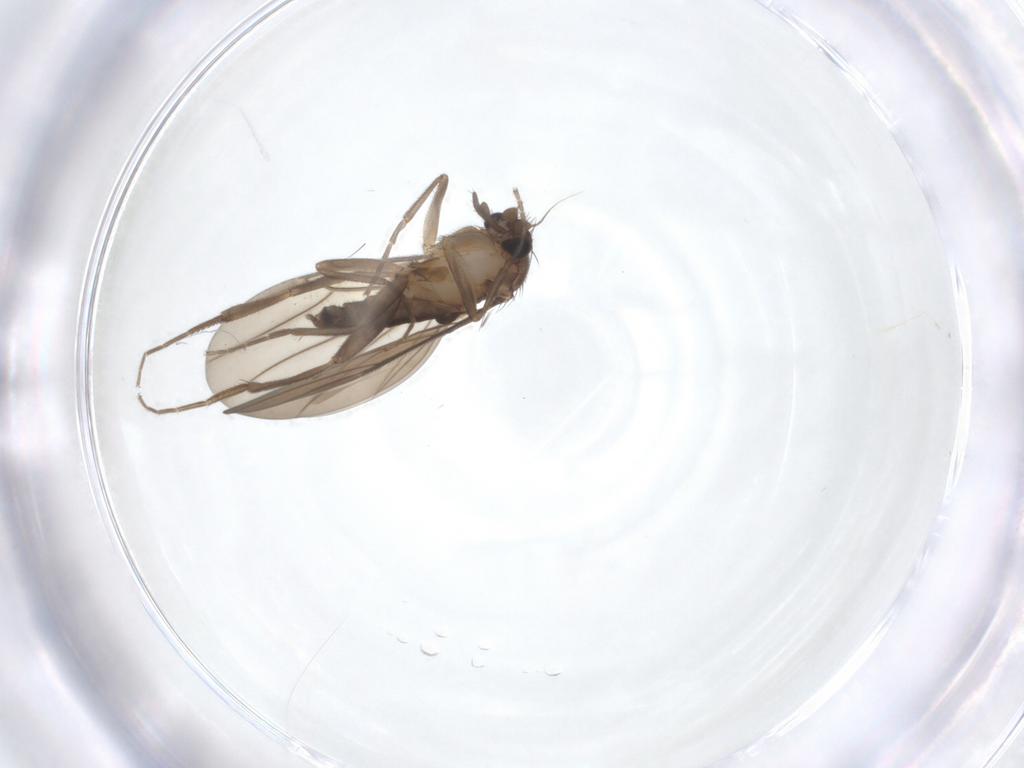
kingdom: Animalia
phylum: Arthropoda
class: Insecta
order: Diptera
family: Phoridae
